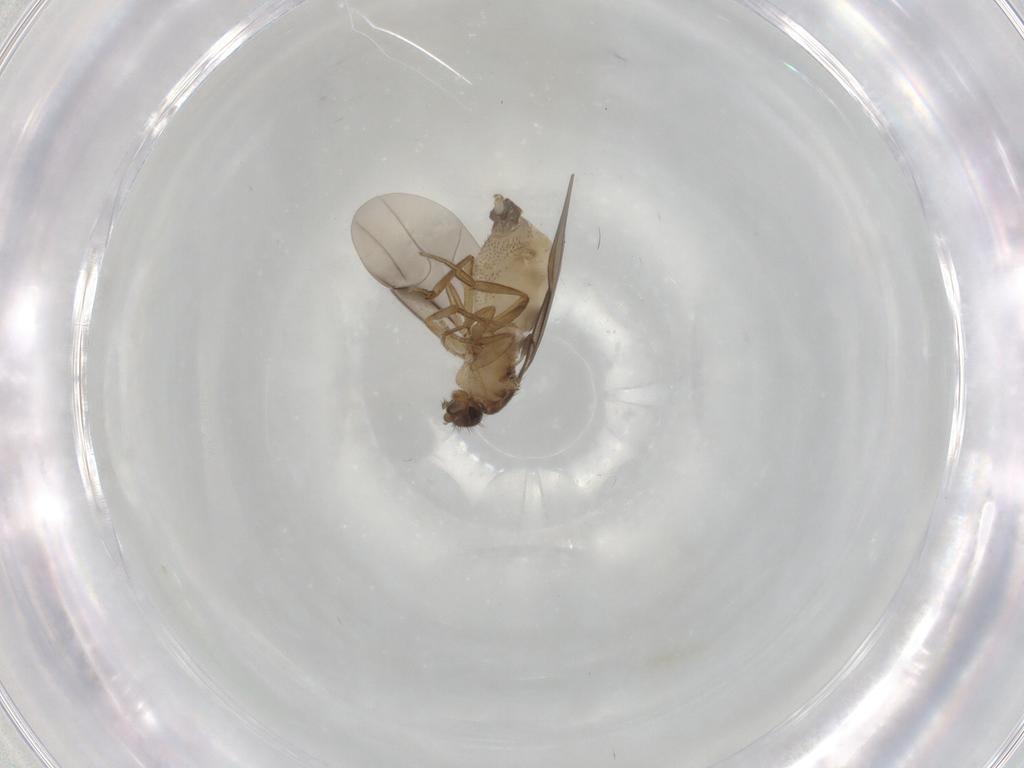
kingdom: Animalia
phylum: Arthropoda
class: Insecta
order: Diptera
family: Phoridae
